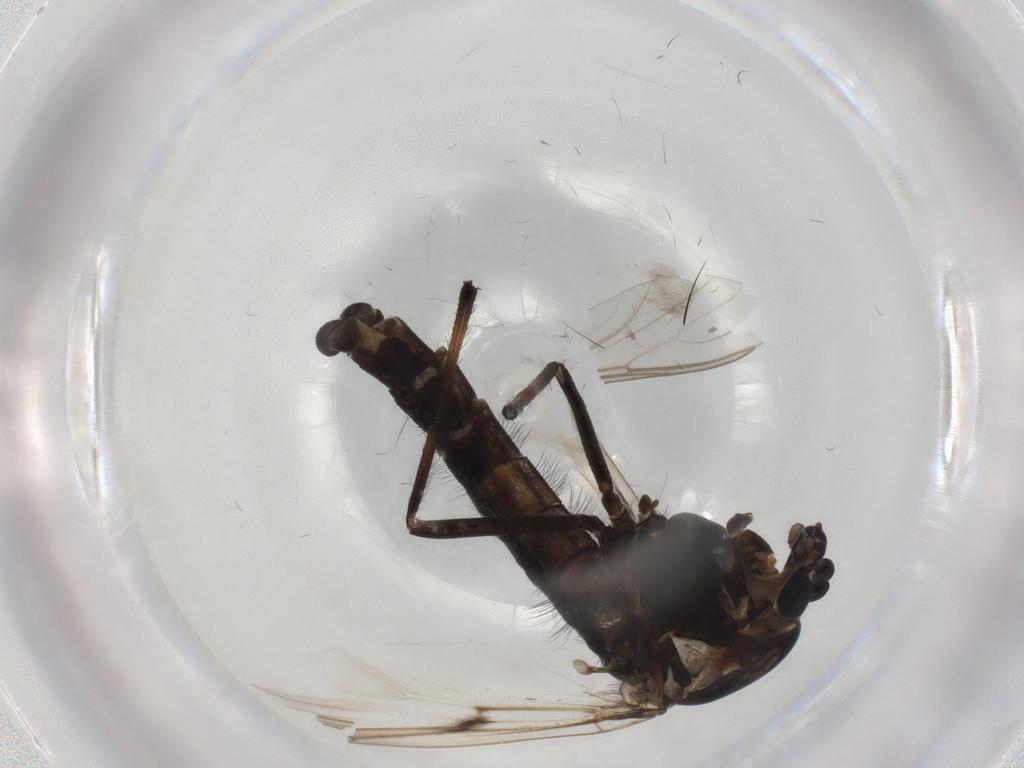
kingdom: Animalia
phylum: Arthropoda
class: Insecta
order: Diptera
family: Chironomidae
